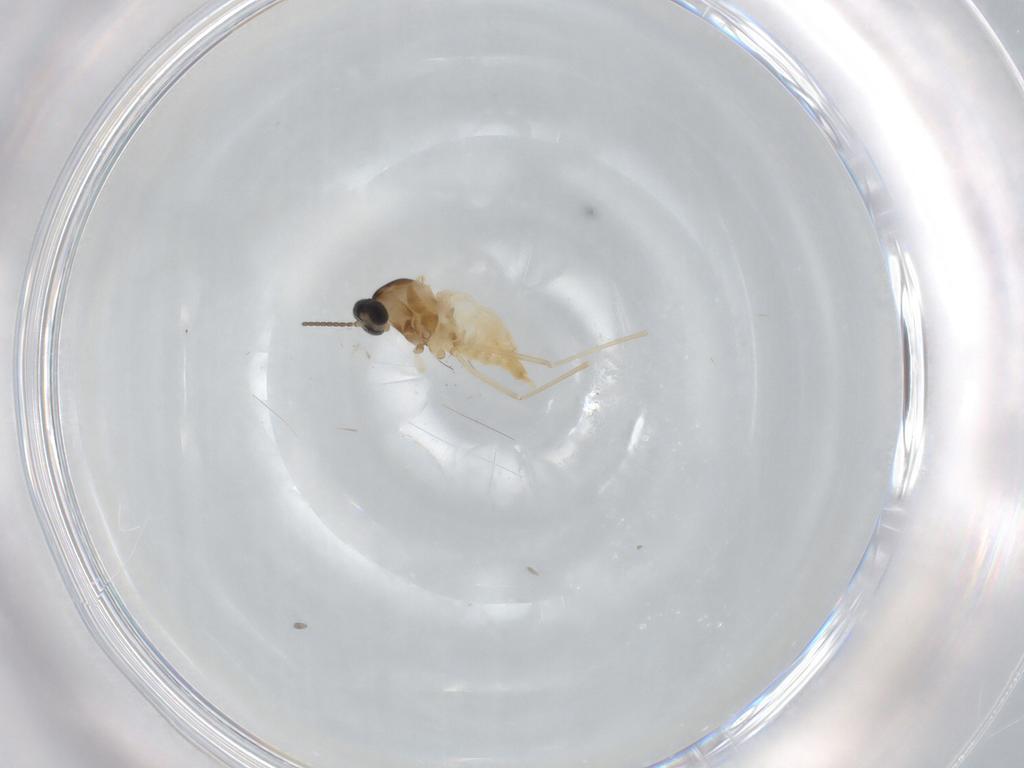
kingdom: Animalia
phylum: Arthropoda
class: Insecta
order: Diptera
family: Cecidomyiidae
